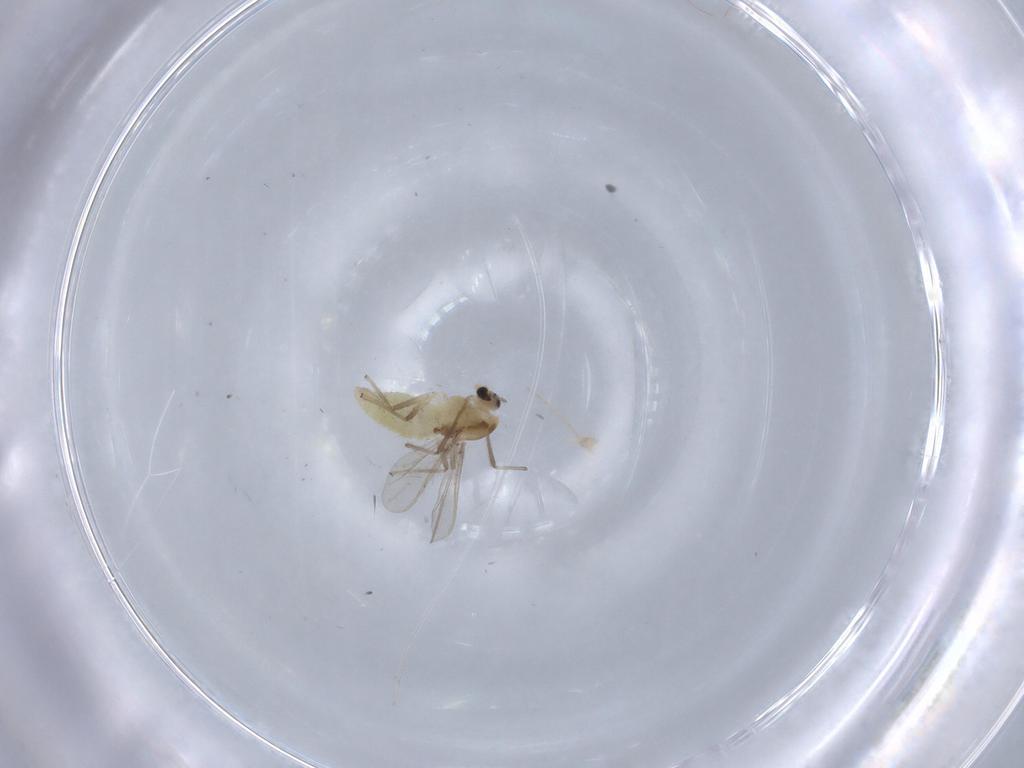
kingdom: Animalia
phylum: Arthropoda
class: Insecta
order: Diptera
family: Chironomidae
